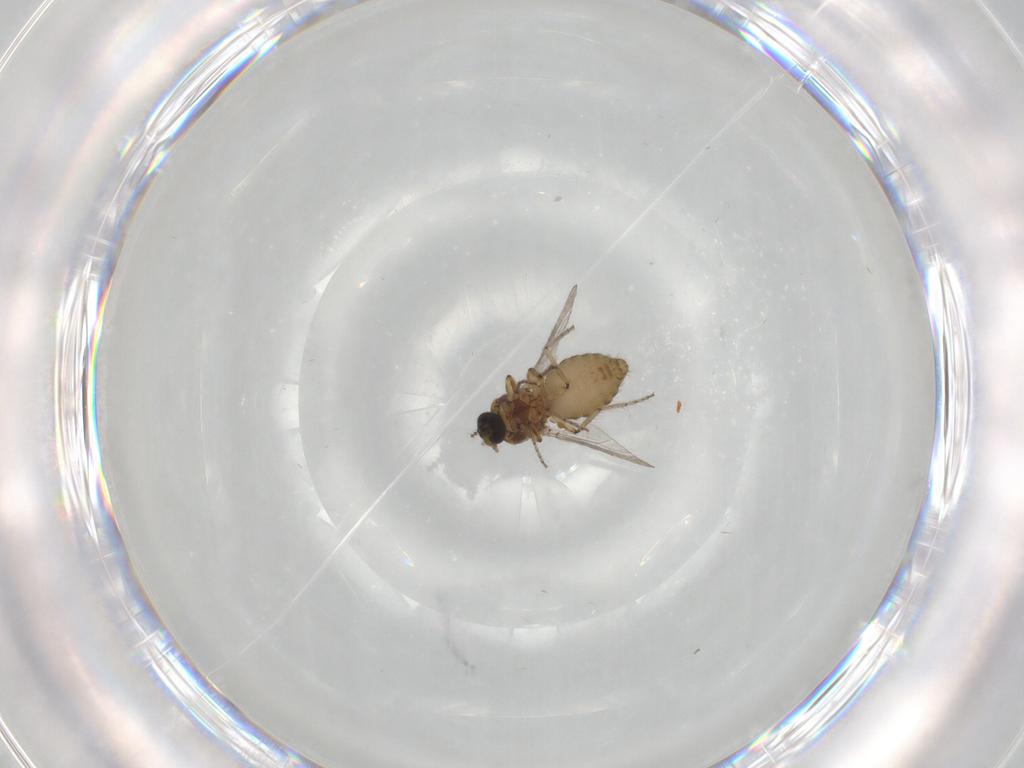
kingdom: Animalia
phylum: Arthropoda
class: Insecta
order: Diptera
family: Ceratopogonidae
